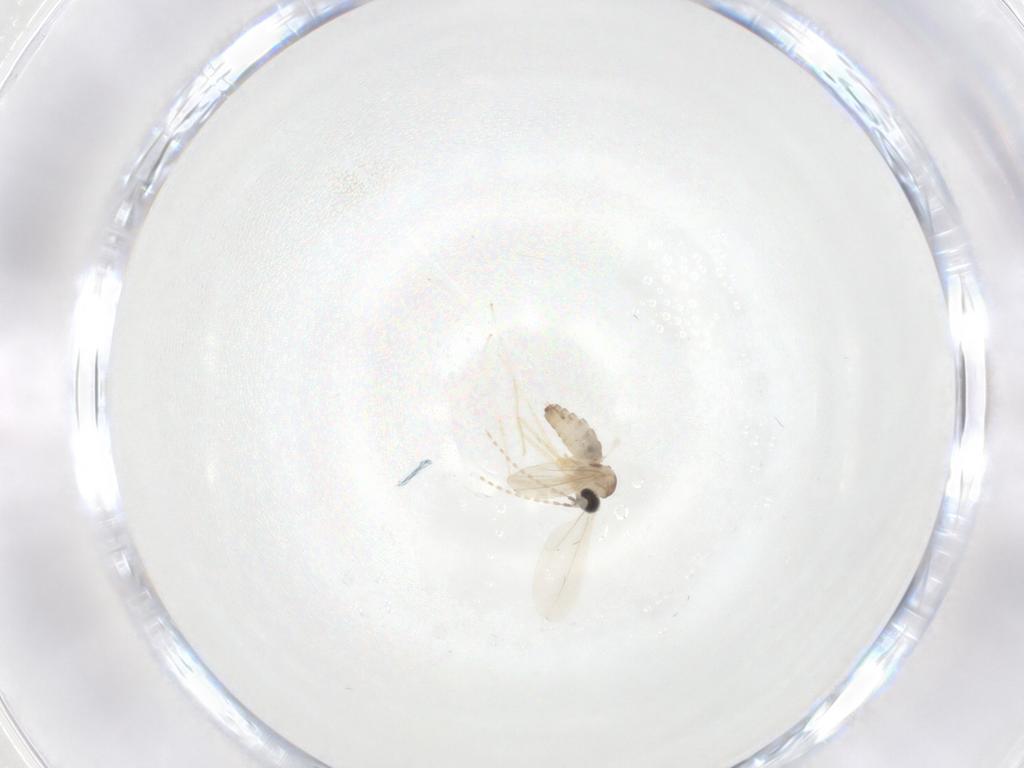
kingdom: Animalia
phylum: Arthropoda
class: Insecta
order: Diptera
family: Cecidomyiidae
